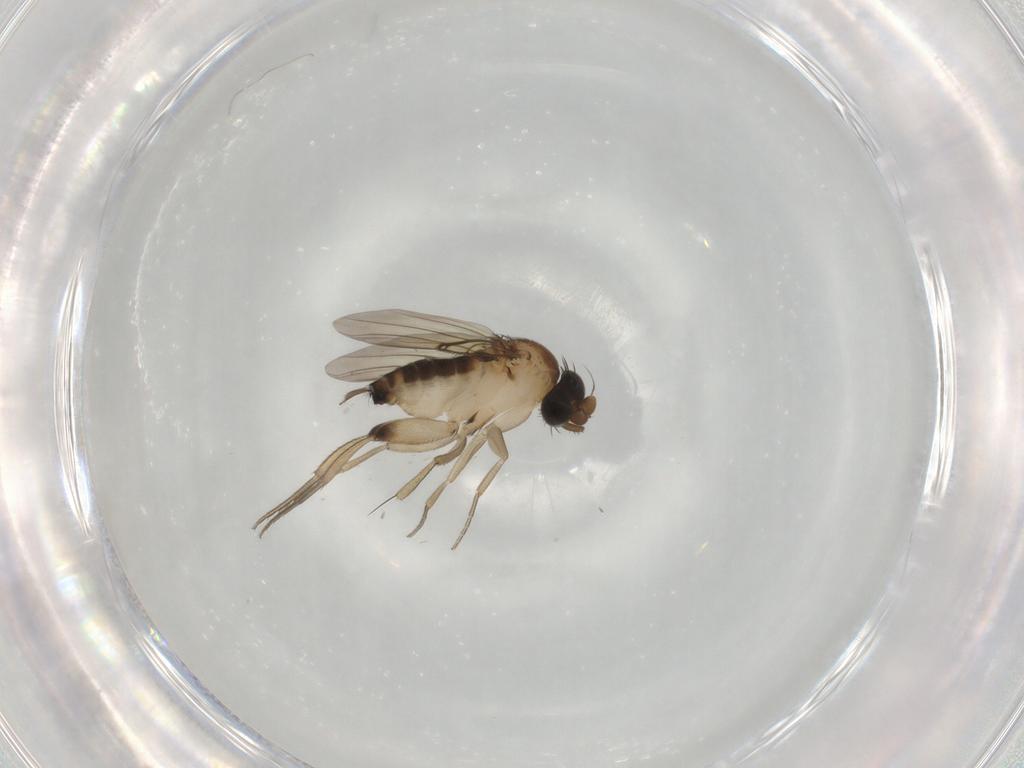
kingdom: Animalia
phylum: Arthropoda
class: Insecta
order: Diptera
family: Phoridae
